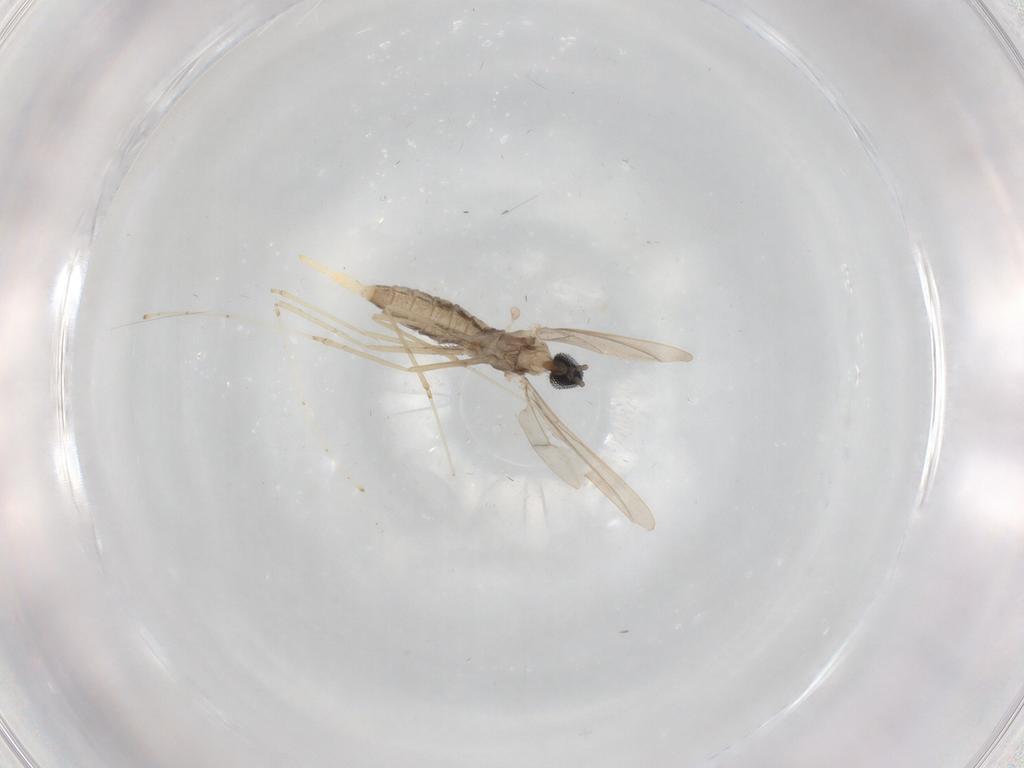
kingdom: Animalia
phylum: Arthropoda
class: Insecta
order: Diptera
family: Cecidomyiidae
